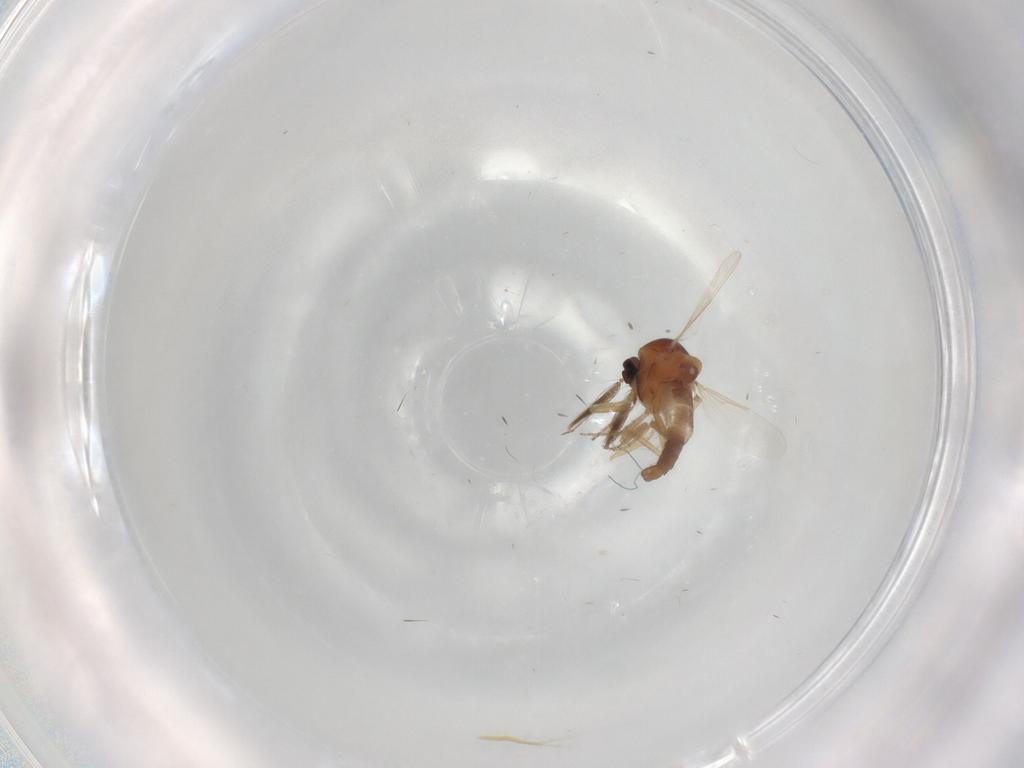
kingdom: Animalia
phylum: Arthropoda
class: Insecta
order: Diptera
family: Ceratopogonidae
